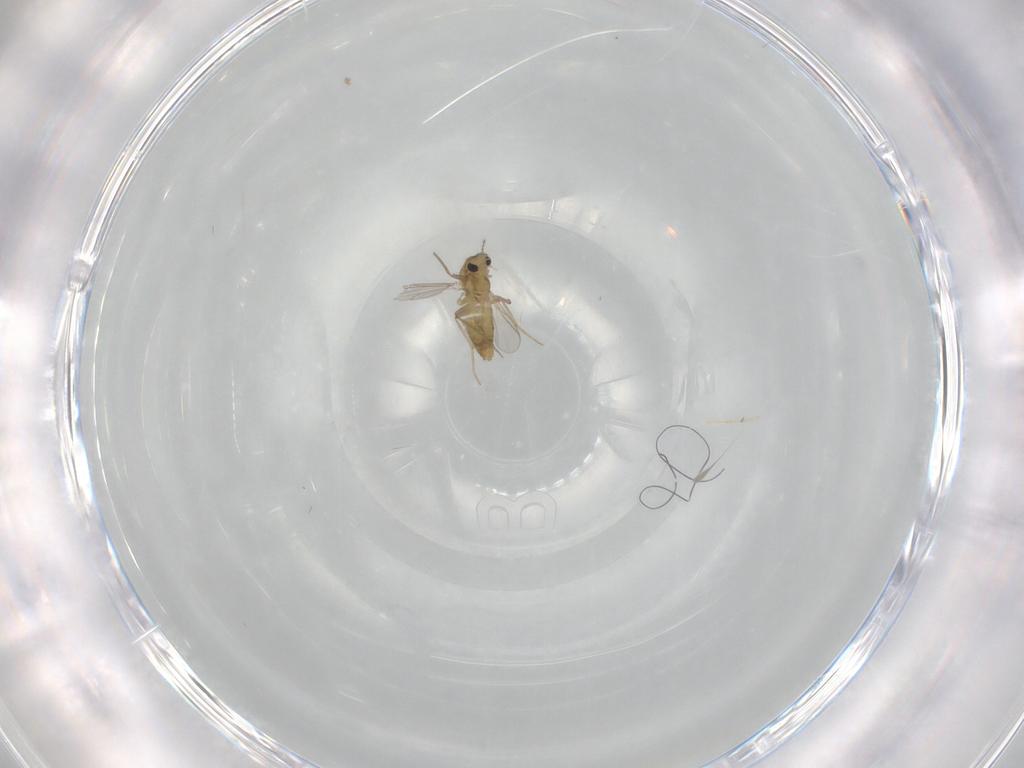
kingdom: Animalia
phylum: Arthropoda
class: Insecta
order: Diptera
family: Chironomidae
